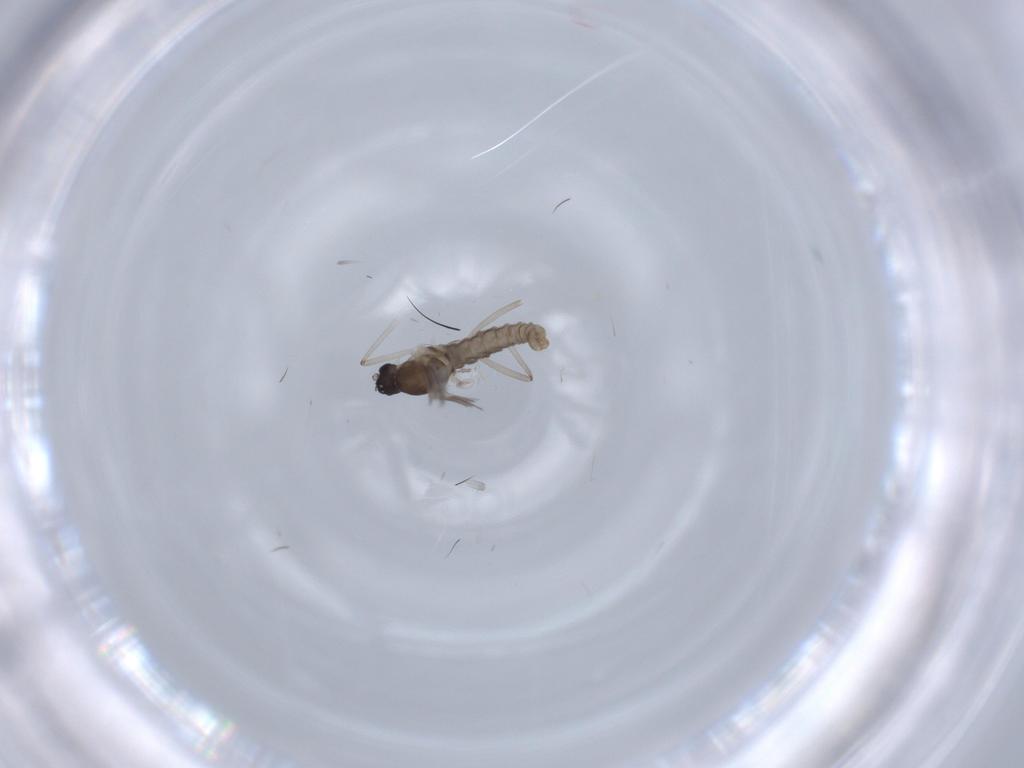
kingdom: Animalia
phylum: Arthropoda
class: Insecta
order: Diptera
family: Cecidomyiidae
